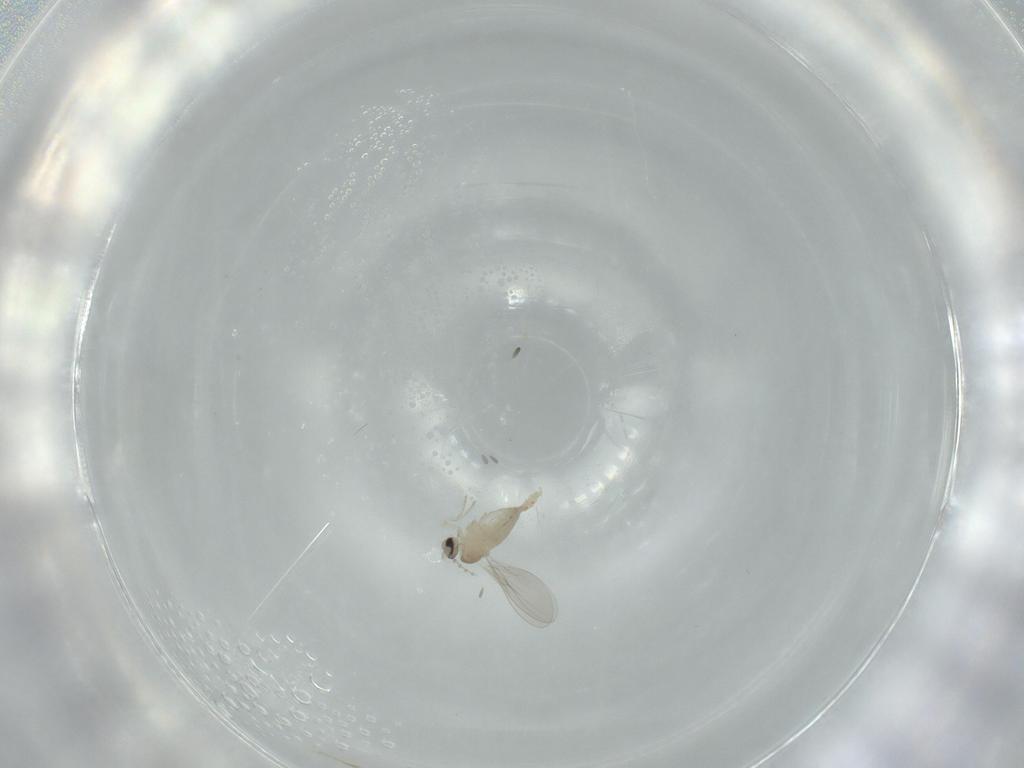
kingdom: Animalia
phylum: Arthropoda
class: Insecta
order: Diptera
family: Cecidomyiidae
